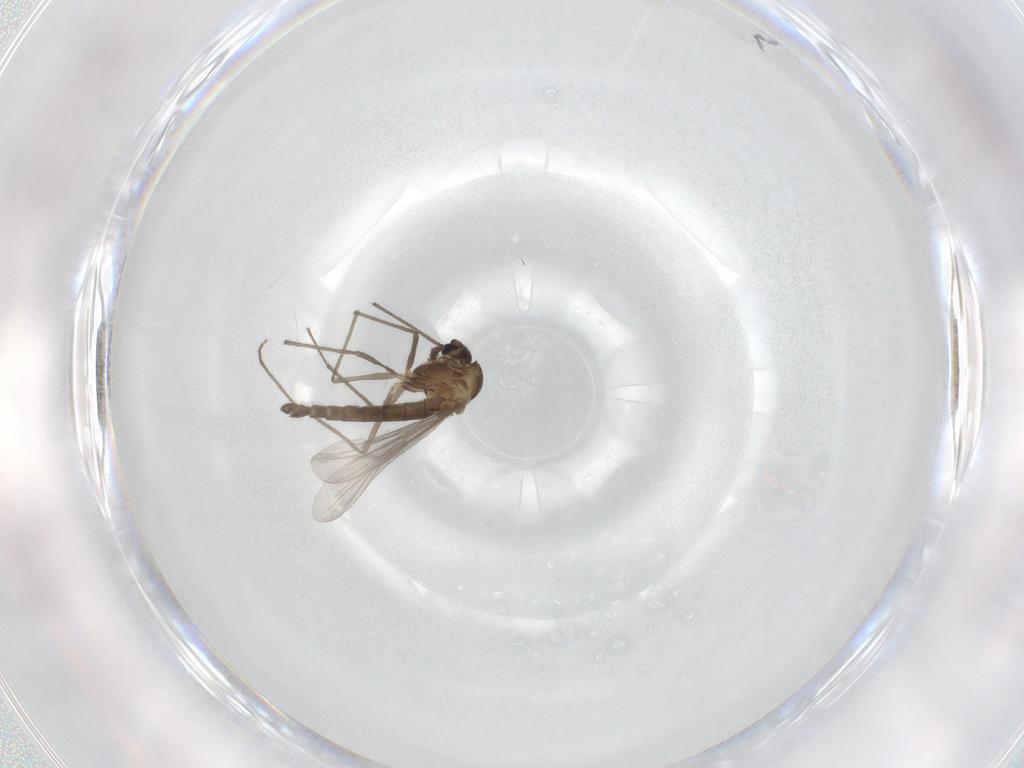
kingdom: Animalia
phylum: Arthropoda
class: Insecta
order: Diptera
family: Chironomidae
